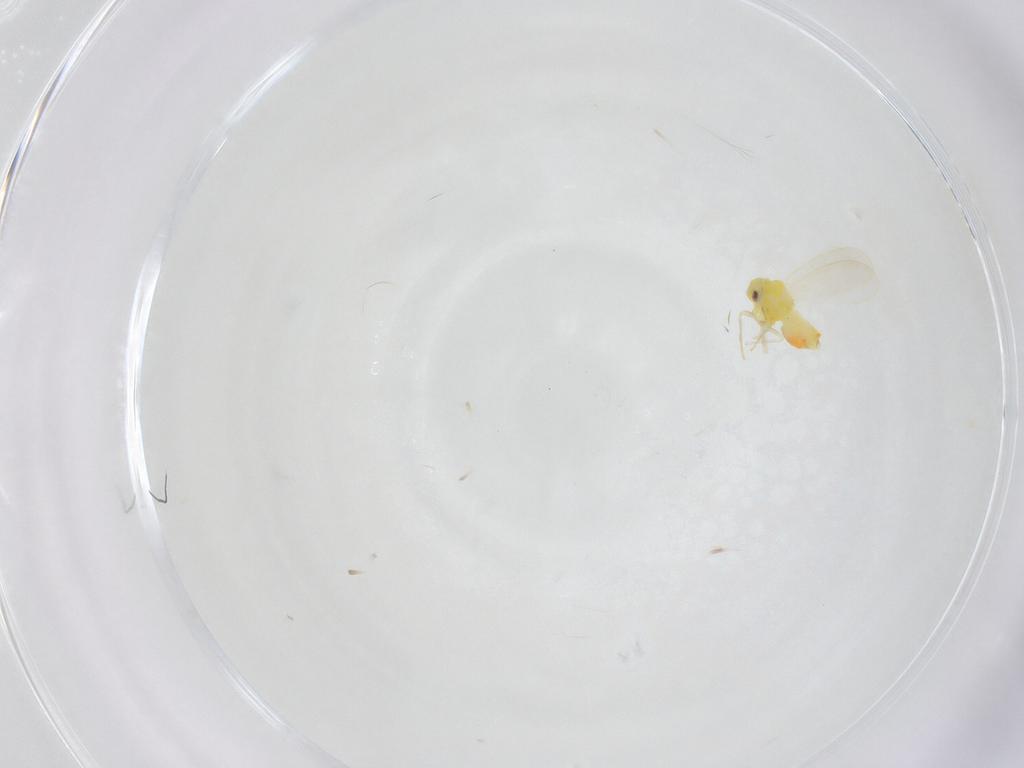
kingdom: Animalia
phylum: Arthropoda
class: Insecta
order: Hemiptera
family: Aleyrodidae
